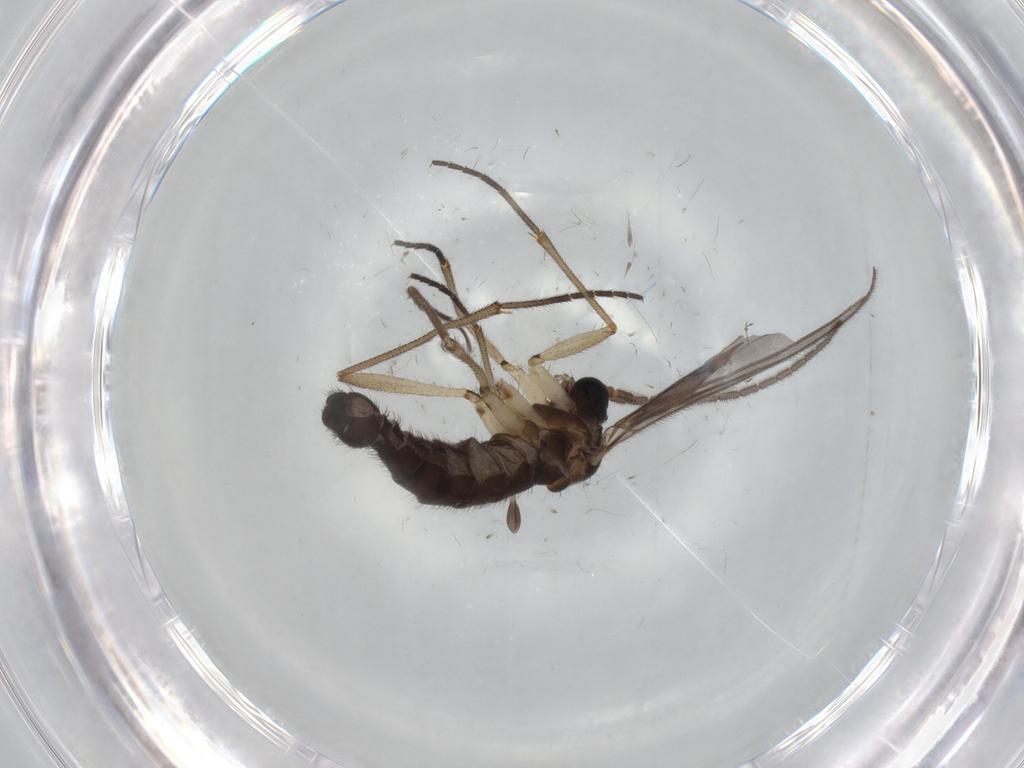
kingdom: Animalia
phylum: Arthropoda
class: Insecta
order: Diptera
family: Sciaridae
